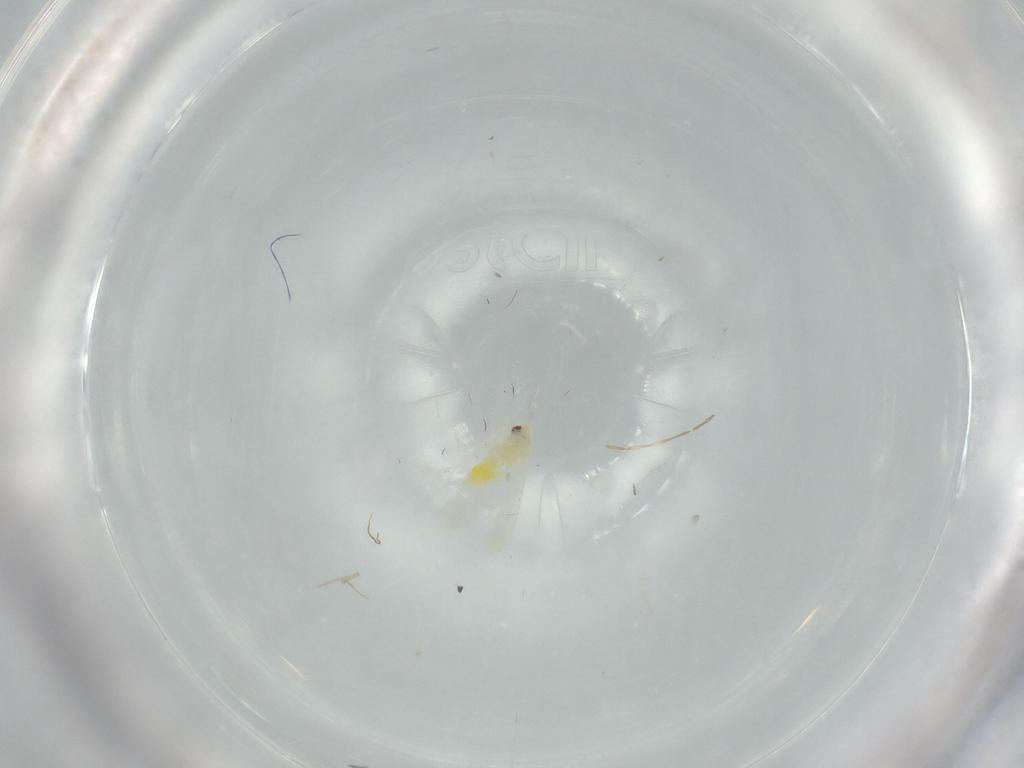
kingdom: Animalia
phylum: Arthropoda
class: Insecta
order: Hemiptera
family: Aleyrodidae
